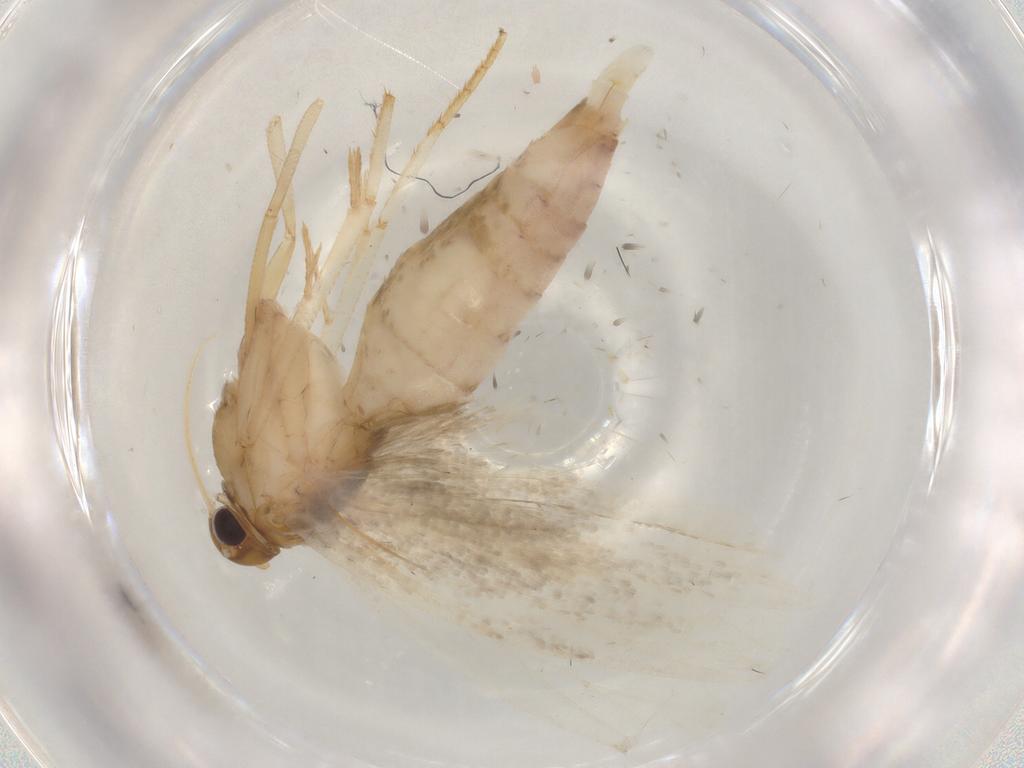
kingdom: Animalia
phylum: Arthropoda
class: Insecta
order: Lepidoptera
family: Gelechiidae
